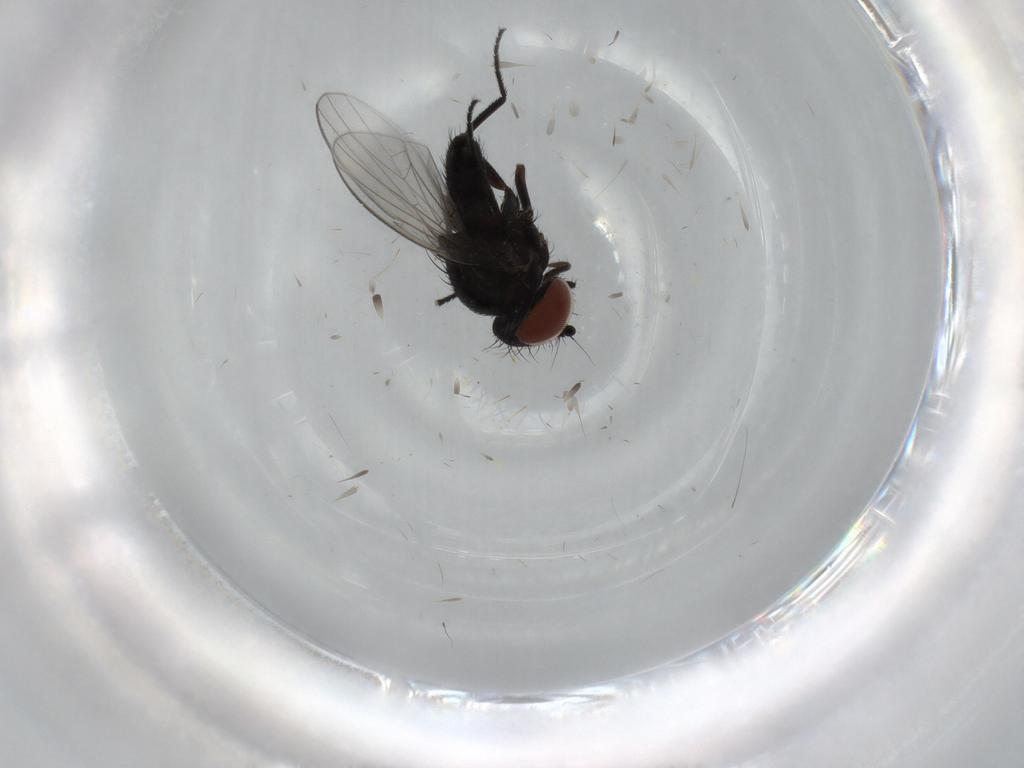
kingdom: Animalia
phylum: Arthropoda
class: Insecta
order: Diptera
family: Milichiidae
